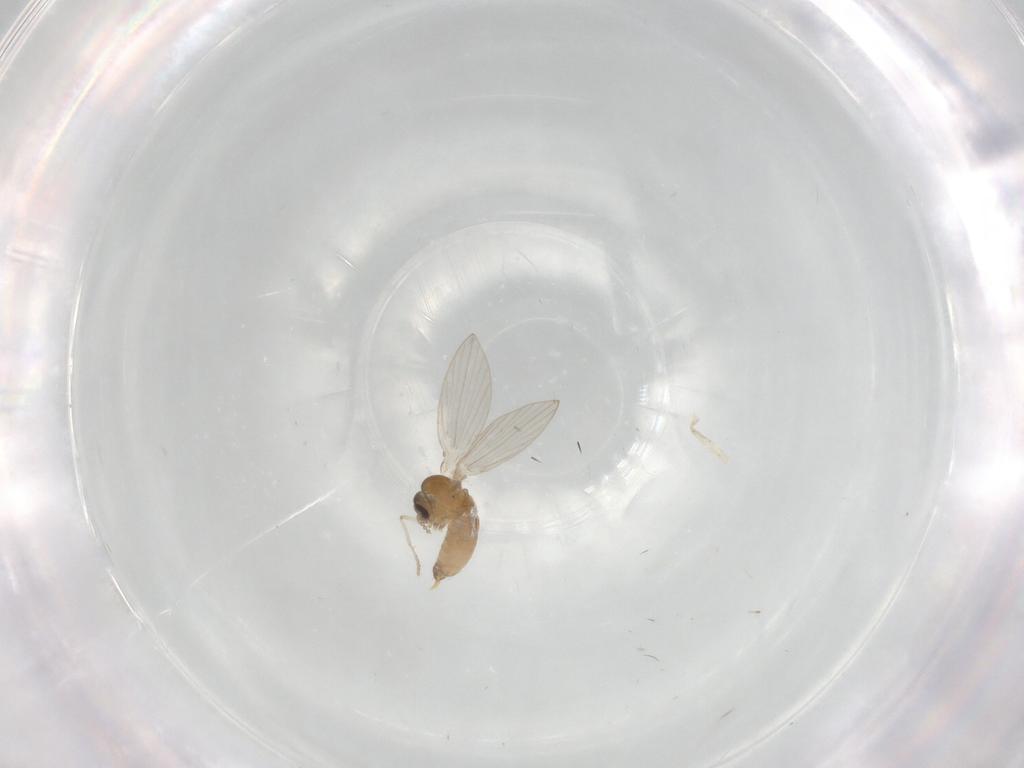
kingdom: Animalia
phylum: Arthropoda
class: Insecta
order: Diptera
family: Psychodidae
